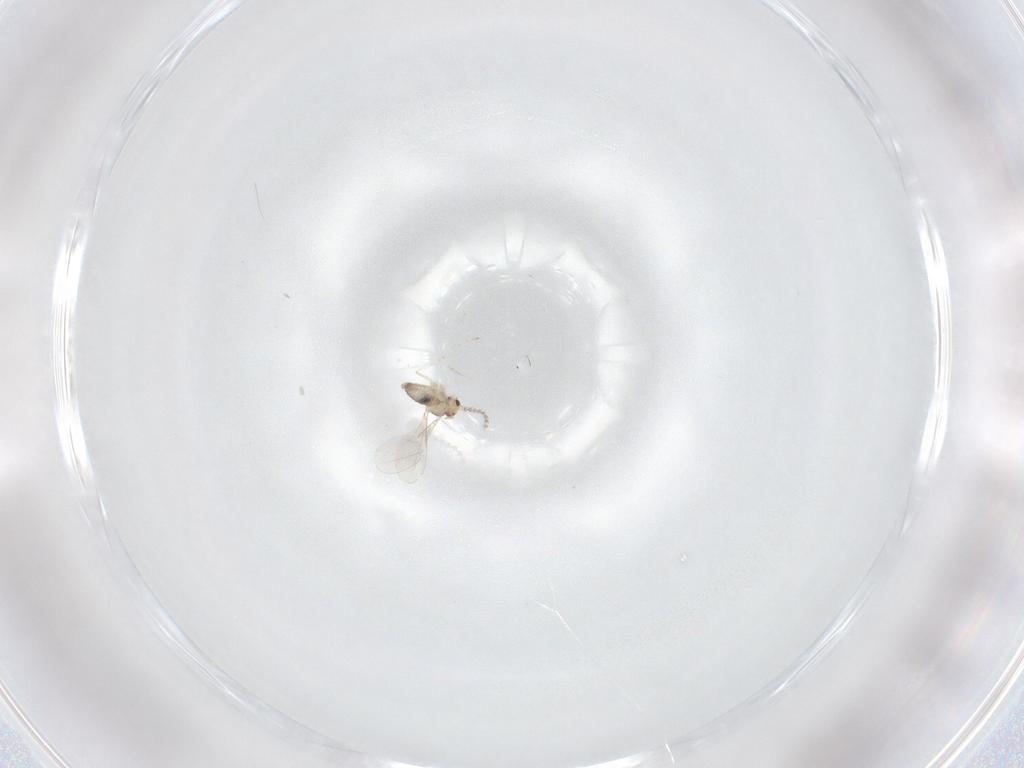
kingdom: Animalia
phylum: Arthropoda
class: Insecta
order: Diptera
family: Cecidomyiidae
